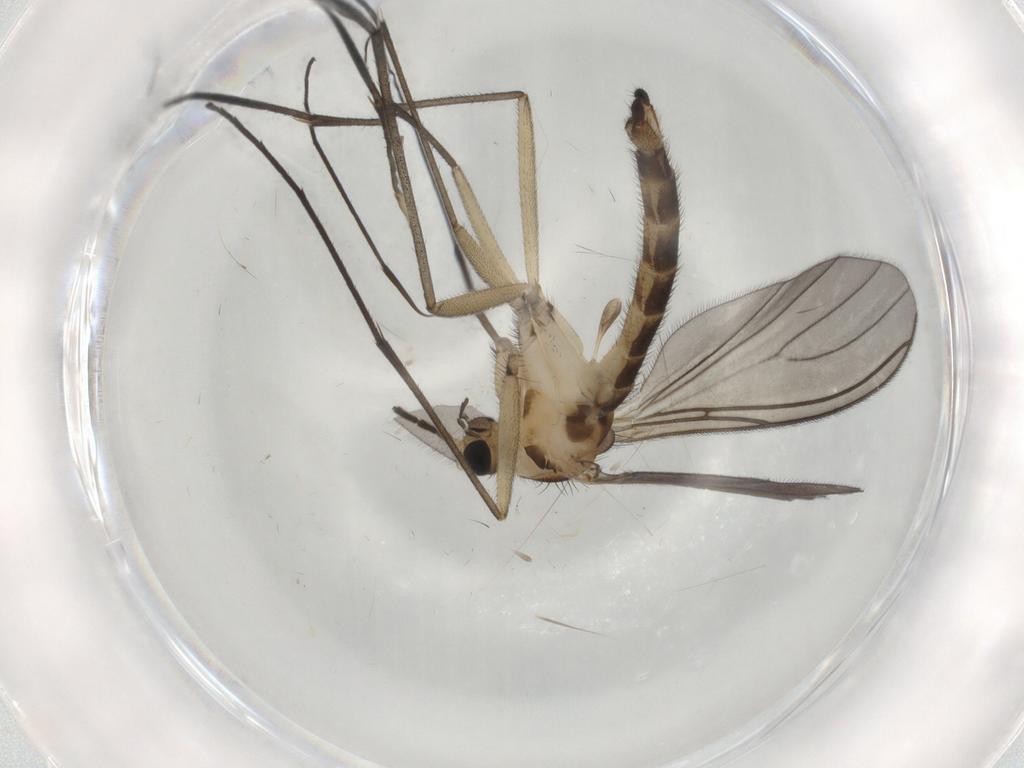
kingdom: Animalia
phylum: Arthropoda
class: Insecta
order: Diptera
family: Sciaridae
